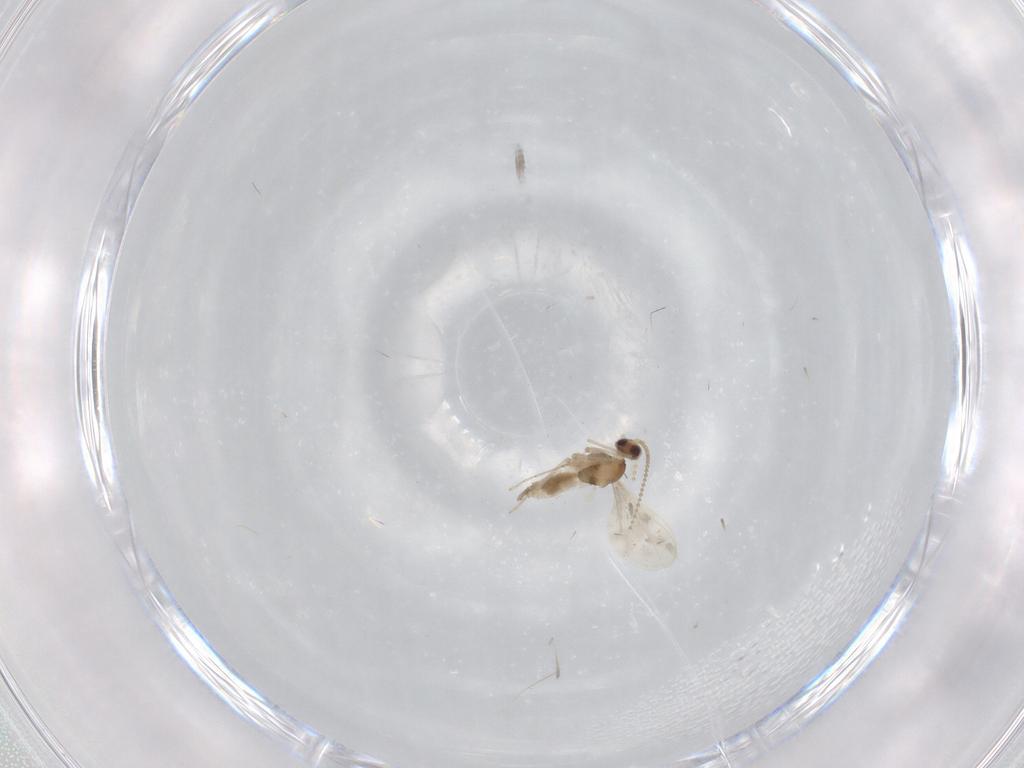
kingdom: Animalia
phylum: Arthropoda
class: Insecta
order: Diptera
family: Cecidomyiidae
